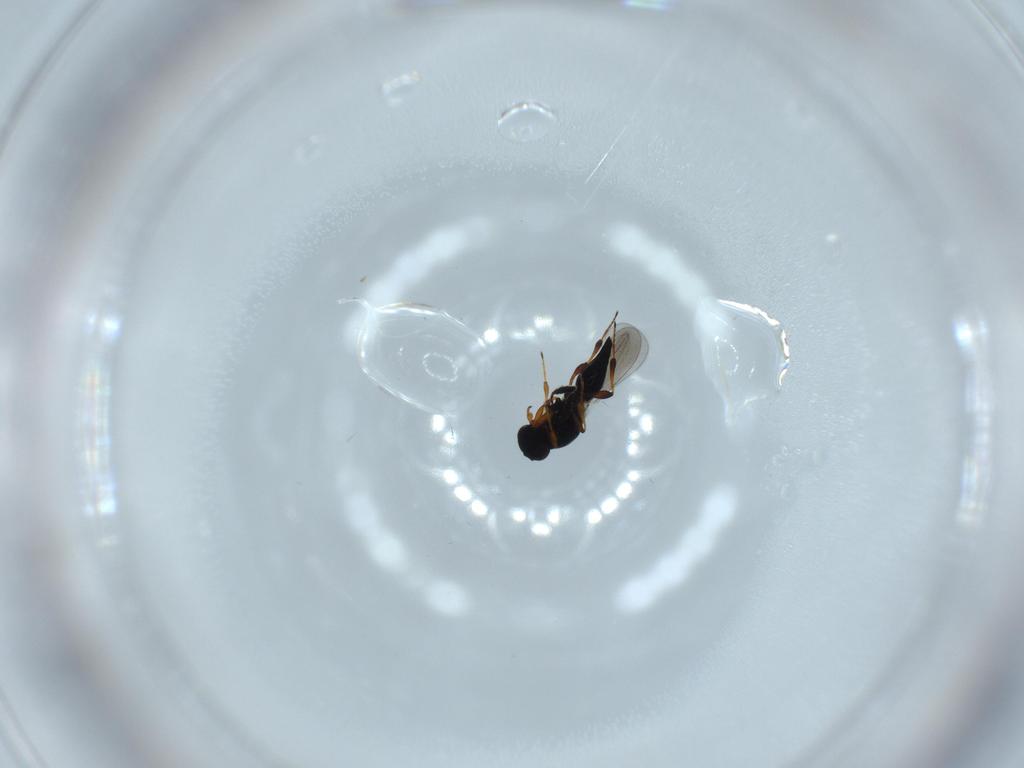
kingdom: Animalia
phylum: Arthropoda
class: Insecta
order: Hymenoptera
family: Platygastridae
